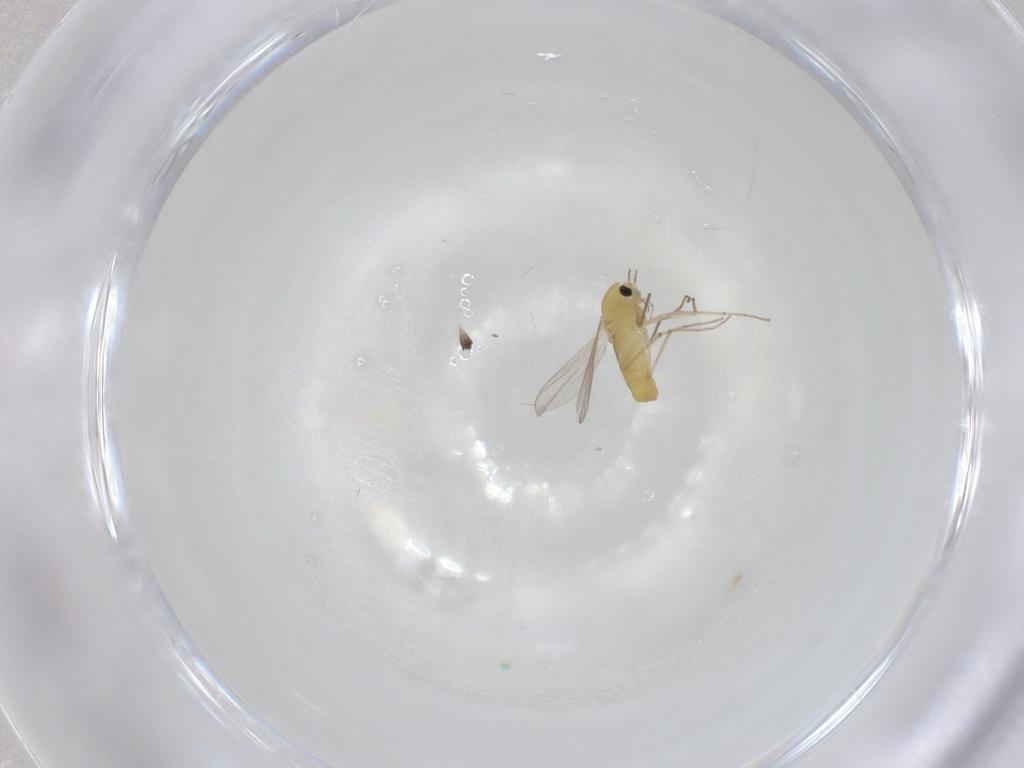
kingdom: Animalia
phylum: Arthropoda
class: Insecta
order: Diptera
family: Chironomidae
